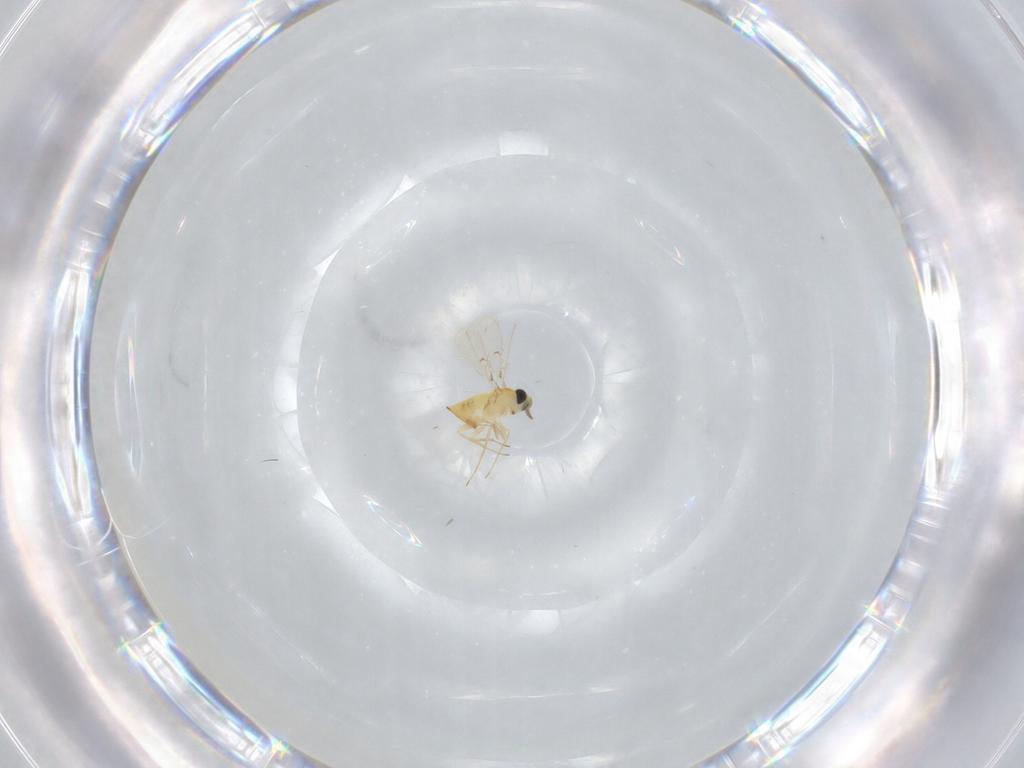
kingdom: Animalia
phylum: Arthropoda
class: Insecta
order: Hymenoptera
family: Trichogrammatidae
